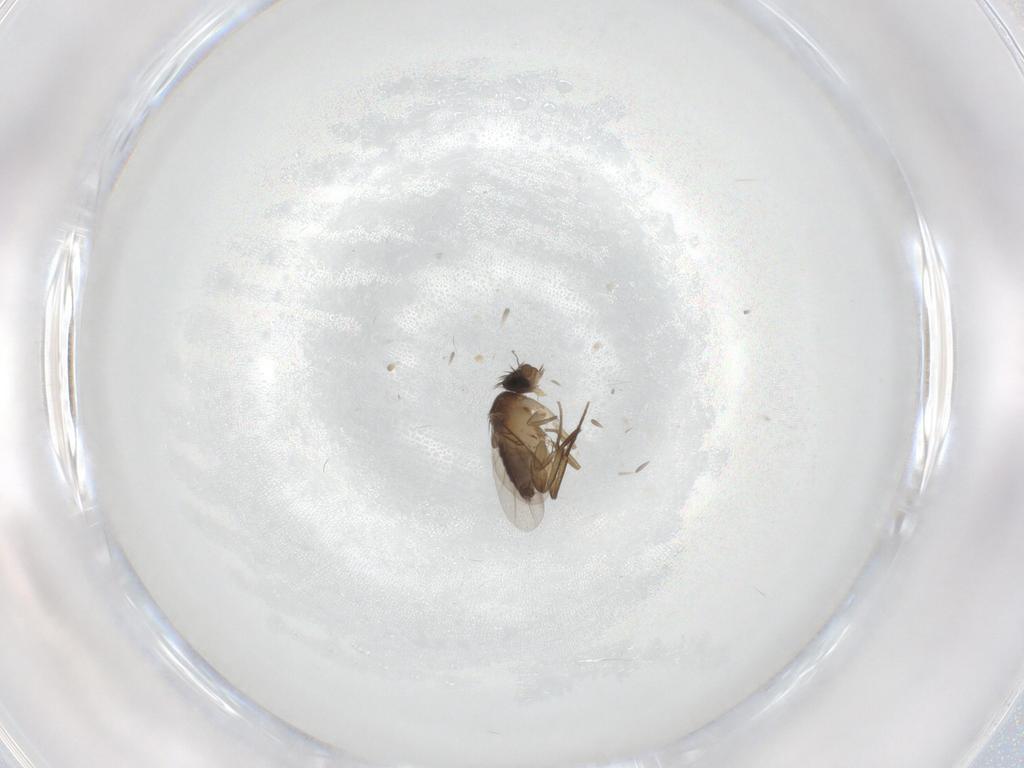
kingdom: Animalia
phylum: Arthropoda
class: Insecta
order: Diptera
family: Phoridae
